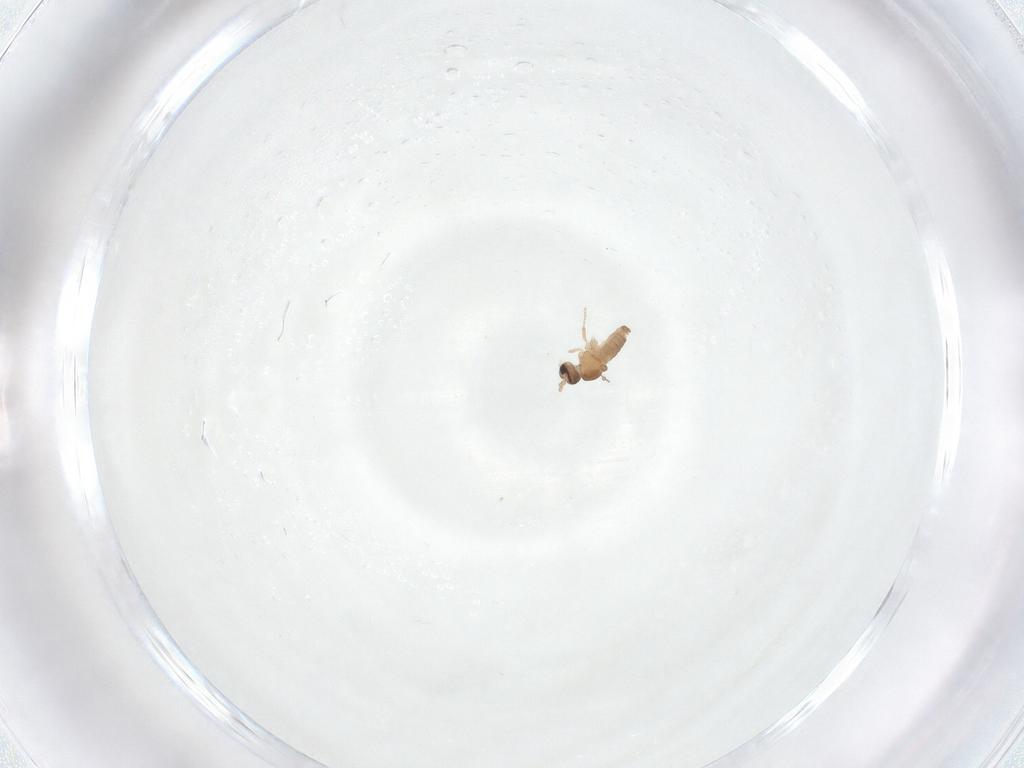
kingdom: Animalia
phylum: Arthropoda
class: Insecta
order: Diptera
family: Cecidomyiidae
